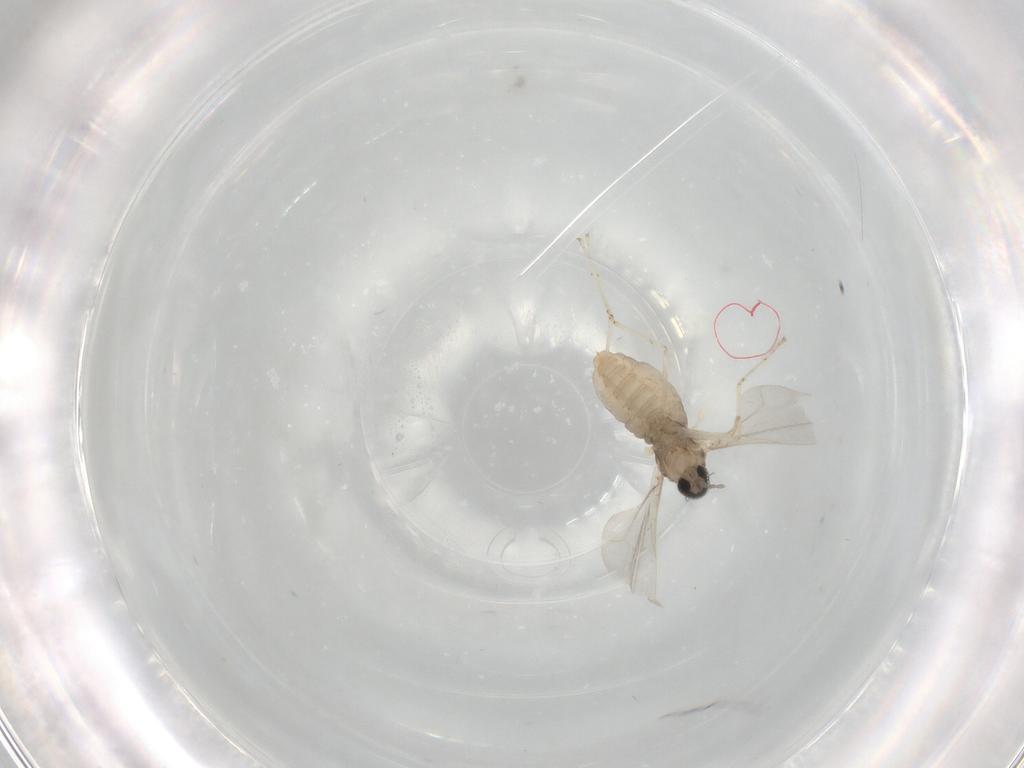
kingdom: Animalia
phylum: Arthropoda
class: Insecta
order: Diptera
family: Cecidomyiidae
